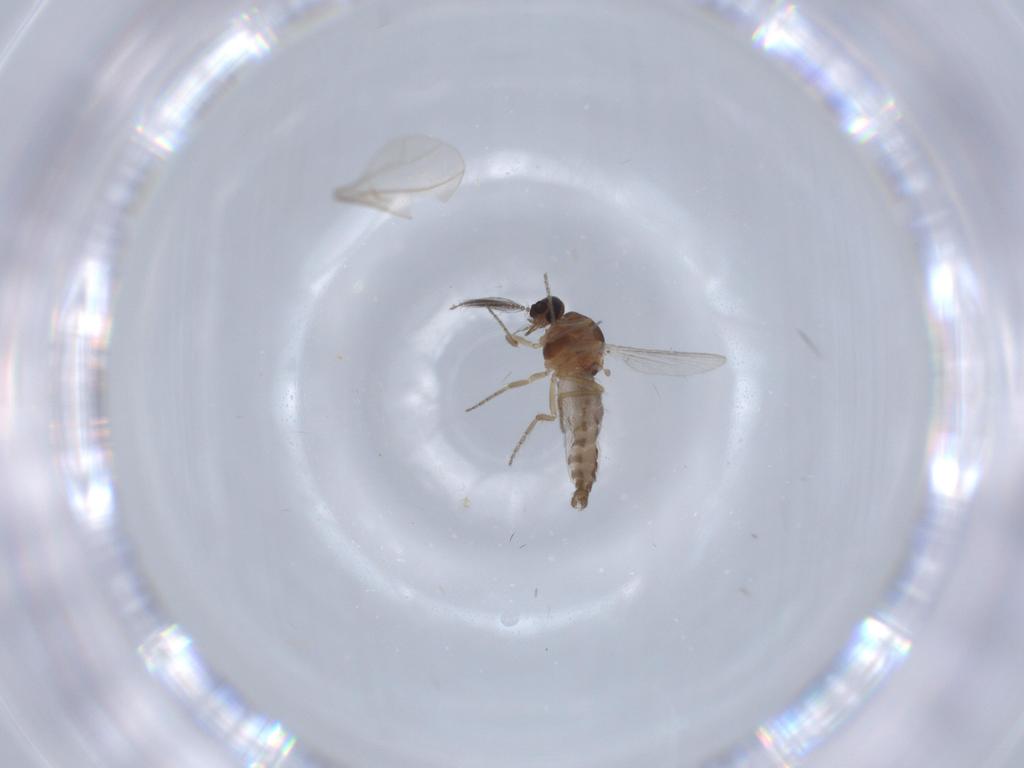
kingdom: Animalia
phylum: Arthropoda
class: Insecta
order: Diptera
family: Ceratopogonidae
